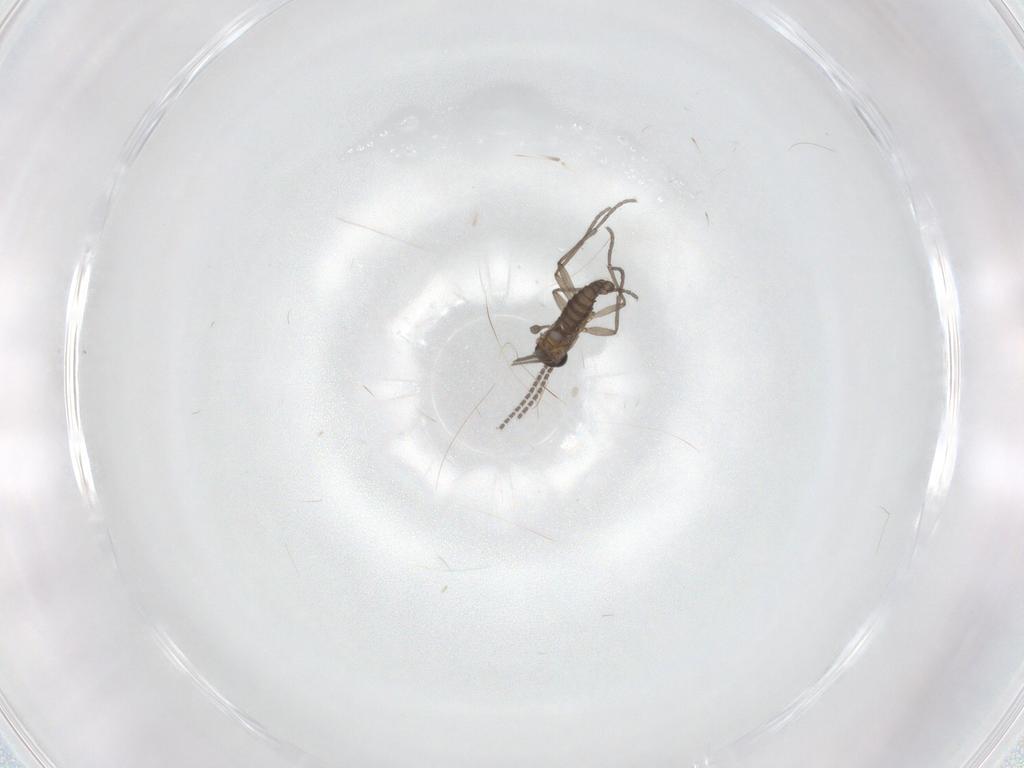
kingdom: Animalia
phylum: Arthropoda
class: Insecta
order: Diptera
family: Sciaridae
